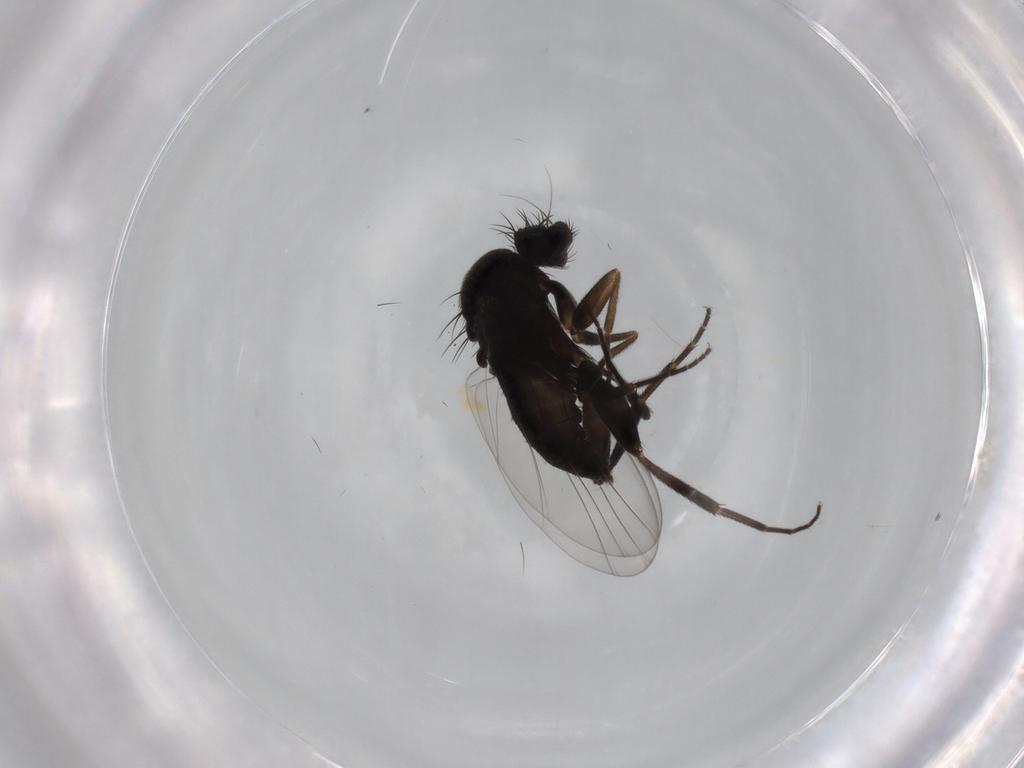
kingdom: Animalia
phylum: Arthropoda
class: Insecta
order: Diptera
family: Phoridae
